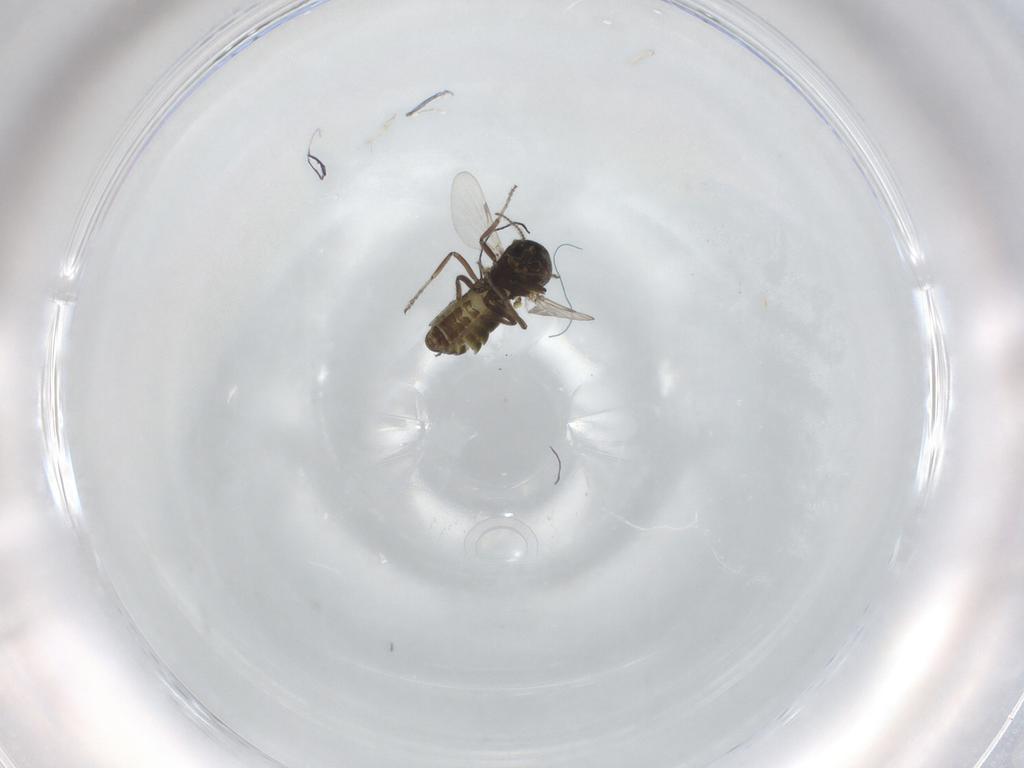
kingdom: Animalia
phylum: Arthropoda
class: Insecta
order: Diptera
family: Ceratopogonidae
